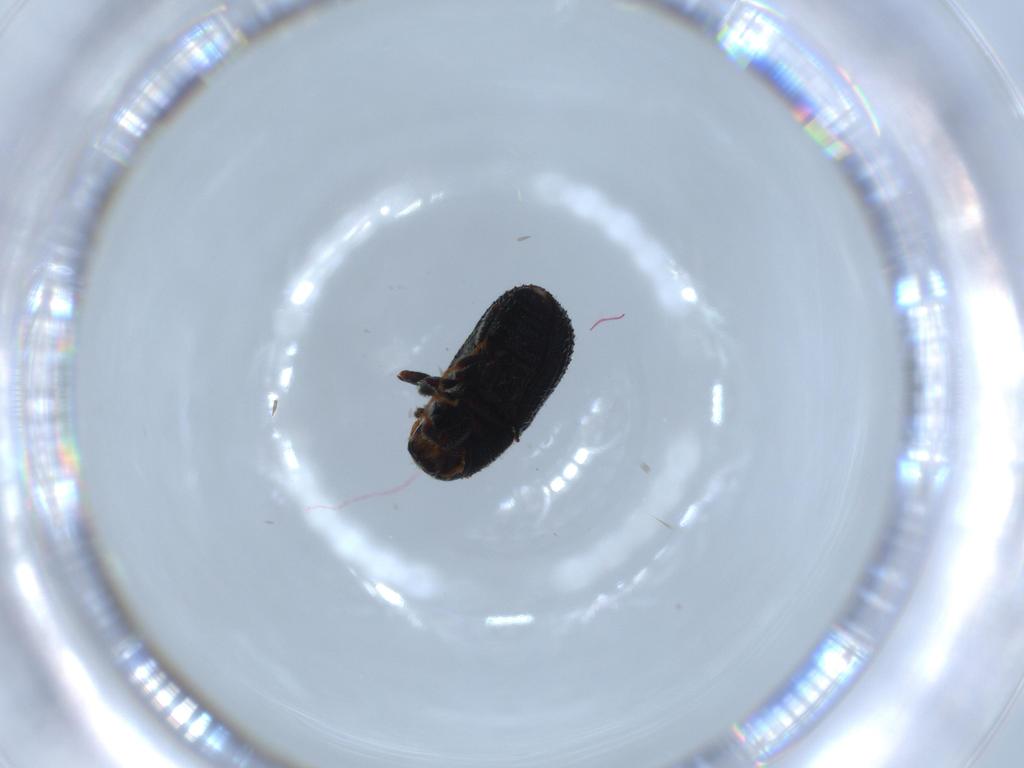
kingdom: Animalia
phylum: Arthropoda
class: Insecta
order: Coleoptera
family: Curculionidae
